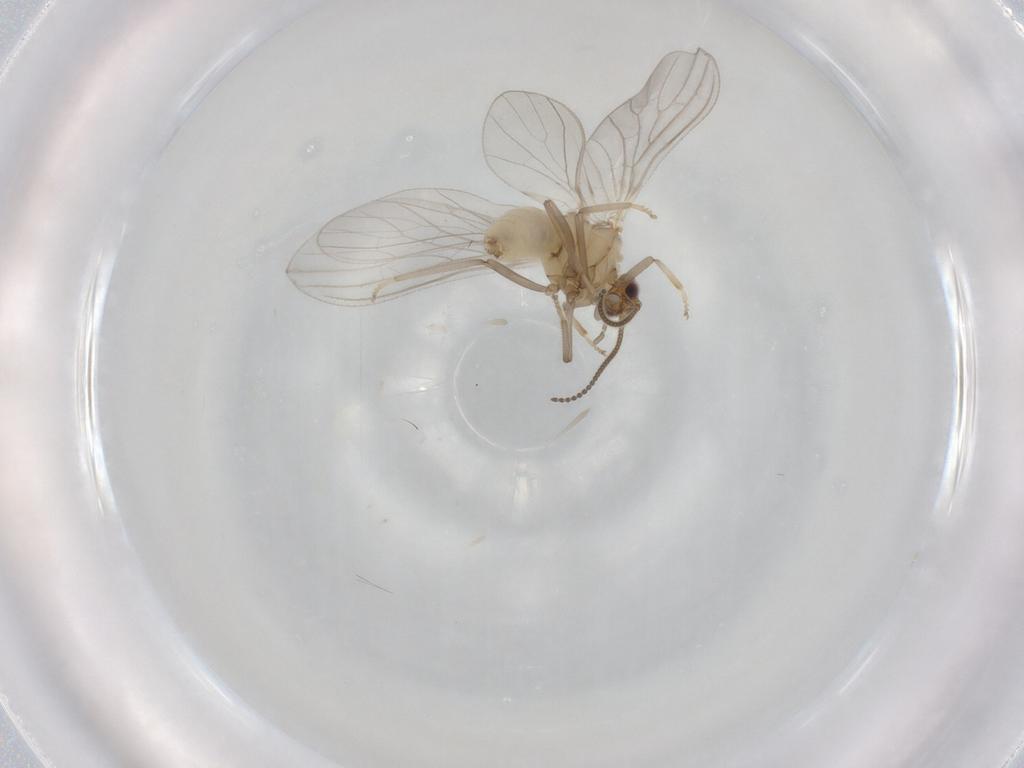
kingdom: Animalia
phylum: Arthropoda
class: Insecta
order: Neuroptera
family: Coniopterygidae
